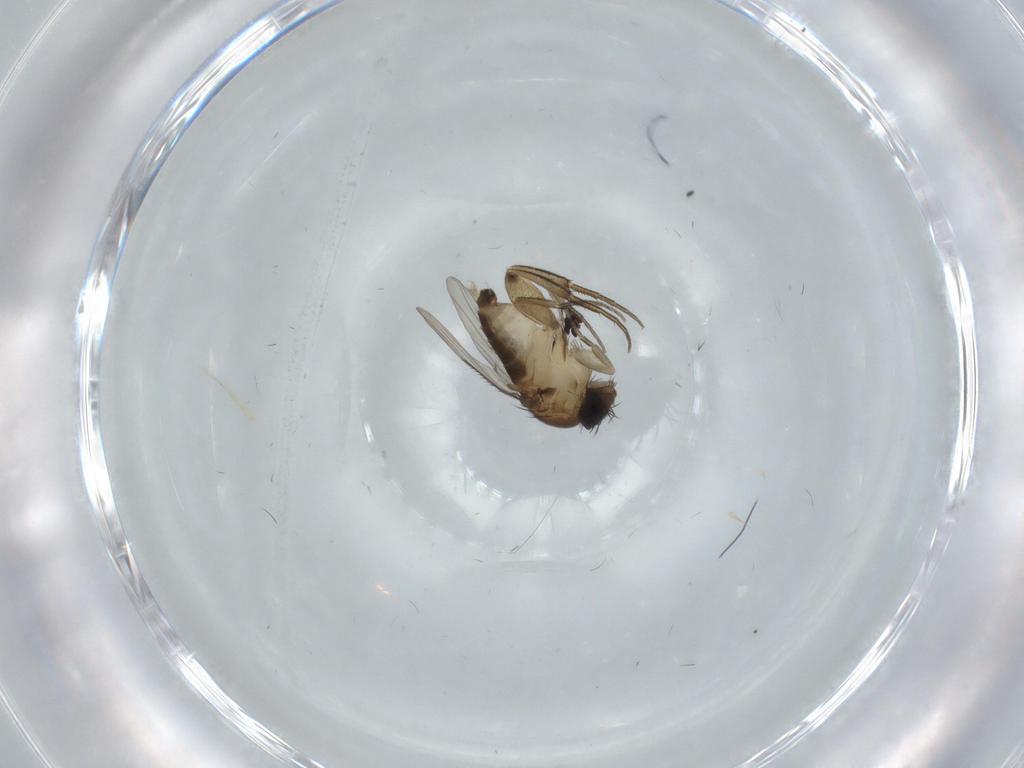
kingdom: Animalia
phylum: Arthropoda
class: Insecta
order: Diptera
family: Phoridae
